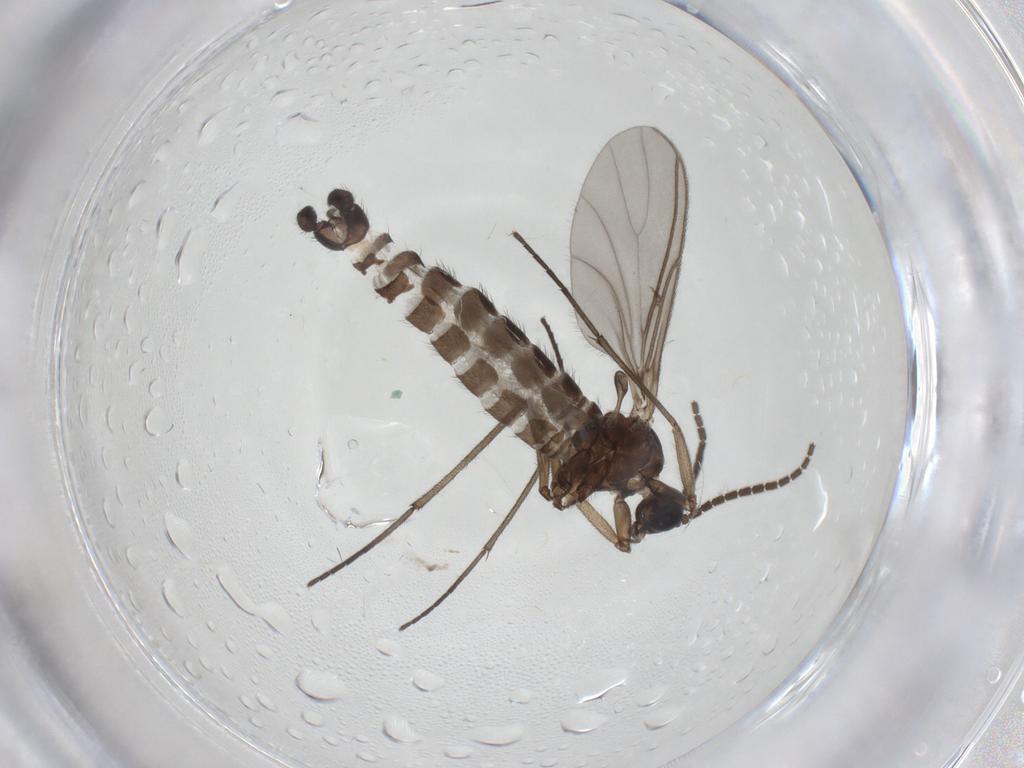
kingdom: Animalia
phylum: Arthropoda
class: Insecta
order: Diptera
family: Sciaridae
